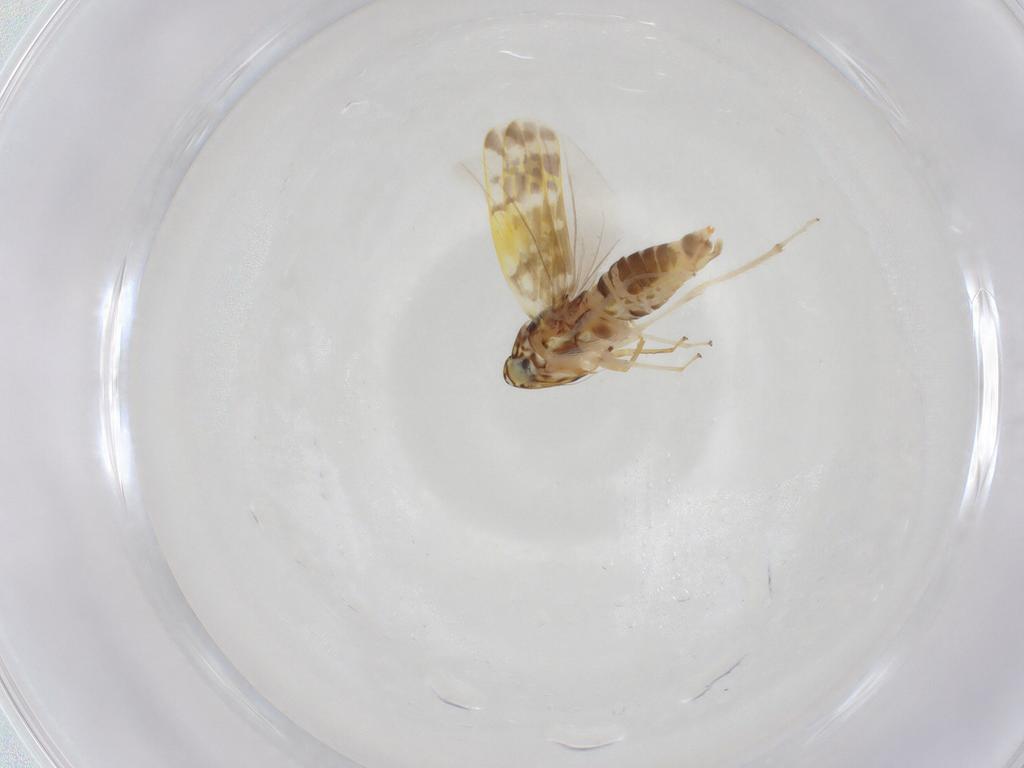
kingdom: Animalia
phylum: Arthropoda
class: Insecta
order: Hemiptera
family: Cicadellidae
